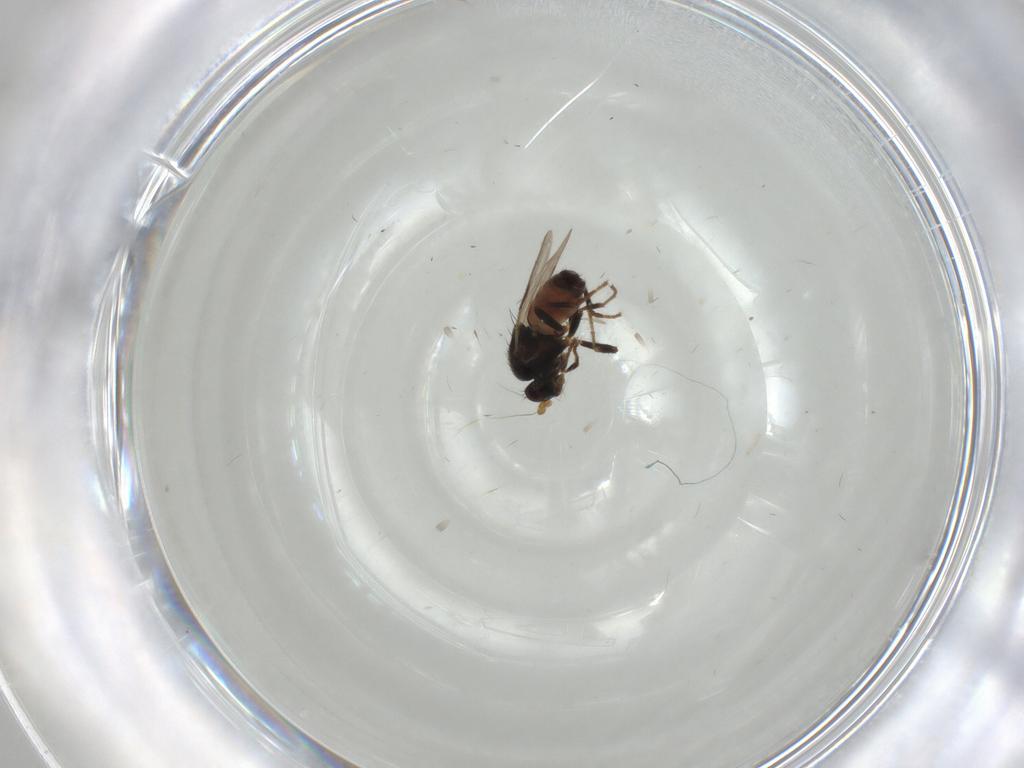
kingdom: Animalia
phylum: Arthropoda
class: Insecta
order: Diptera
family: Sphaeroceridae
